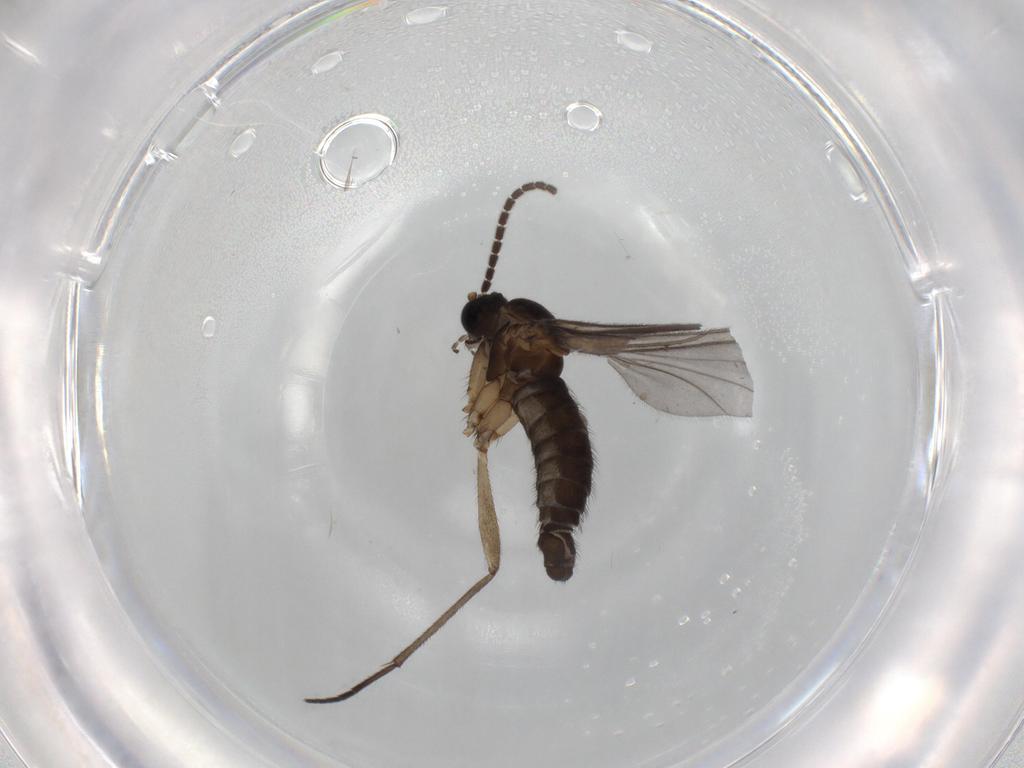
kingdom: Animalia
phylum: Arthropoda
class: Insecta
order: Diptera
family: Sciaridae
